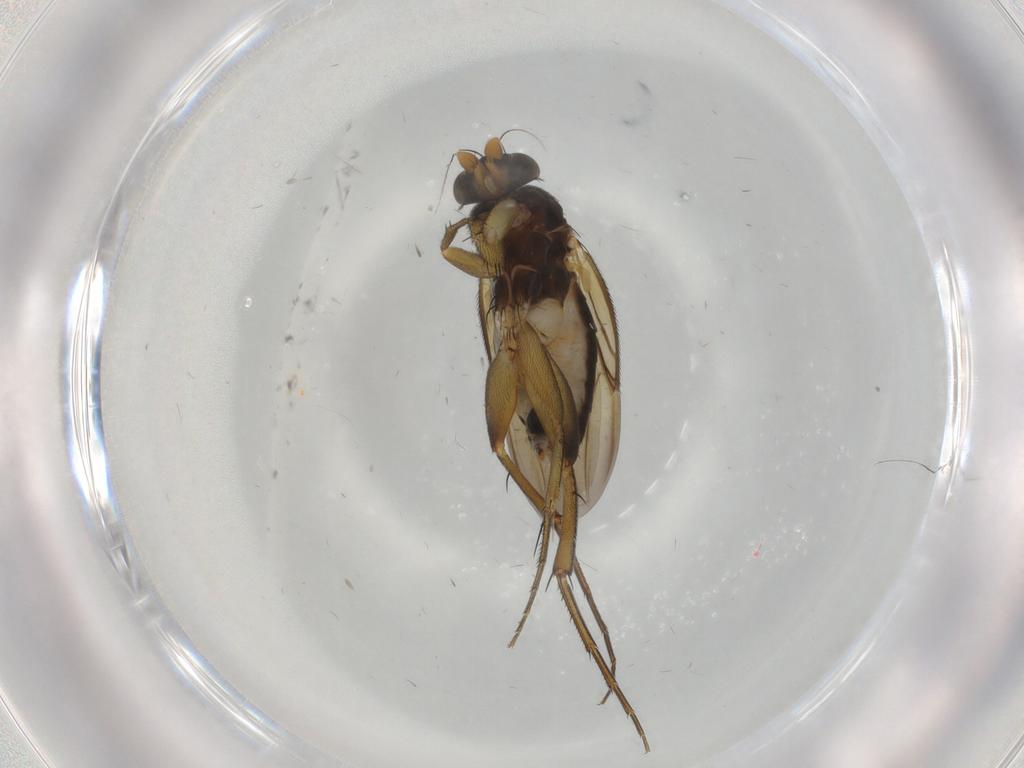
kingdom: Animalia
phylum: Arthropoda
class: Insecta
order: Diptera
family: Phoridae
